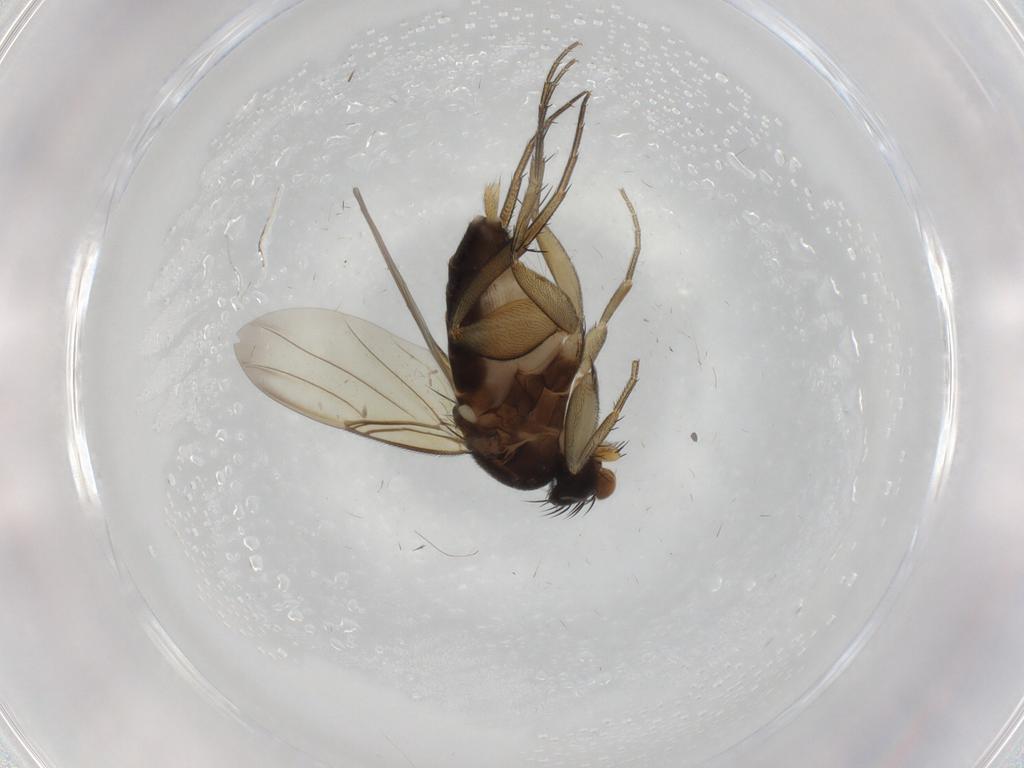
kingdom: Animalia
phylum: Arthropoda
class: Insecta
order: Diptera
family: Phoridae
